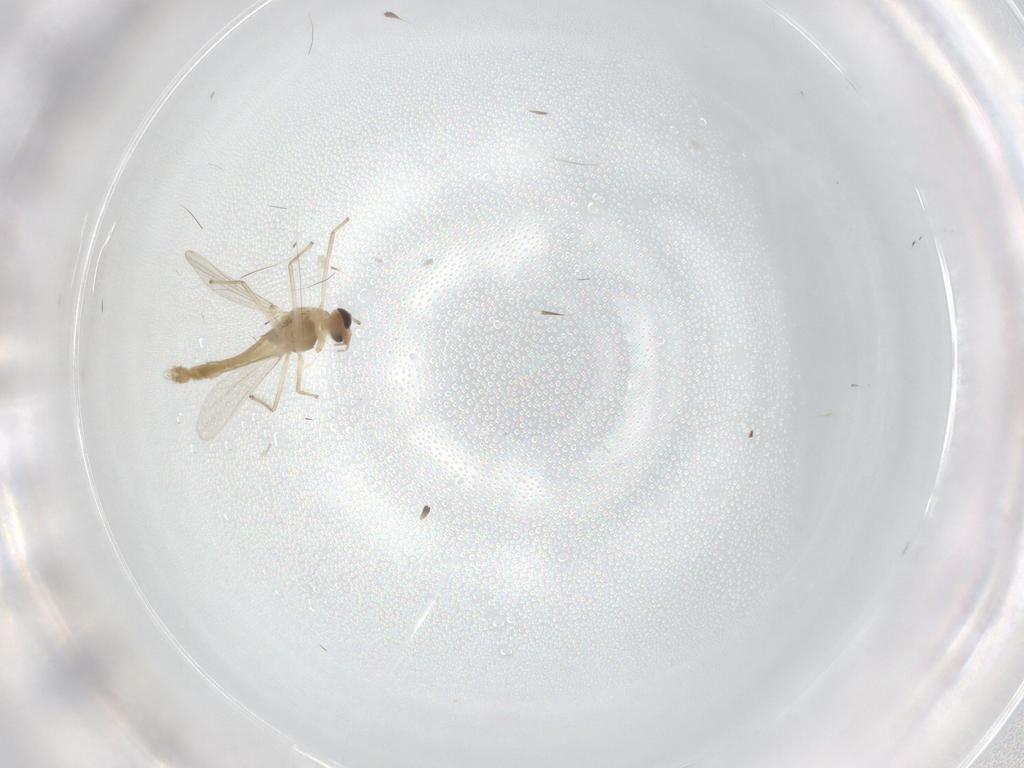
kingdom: Animalia
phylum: Arthropoda
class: Insecta
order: Diptera
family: Chironomidae
